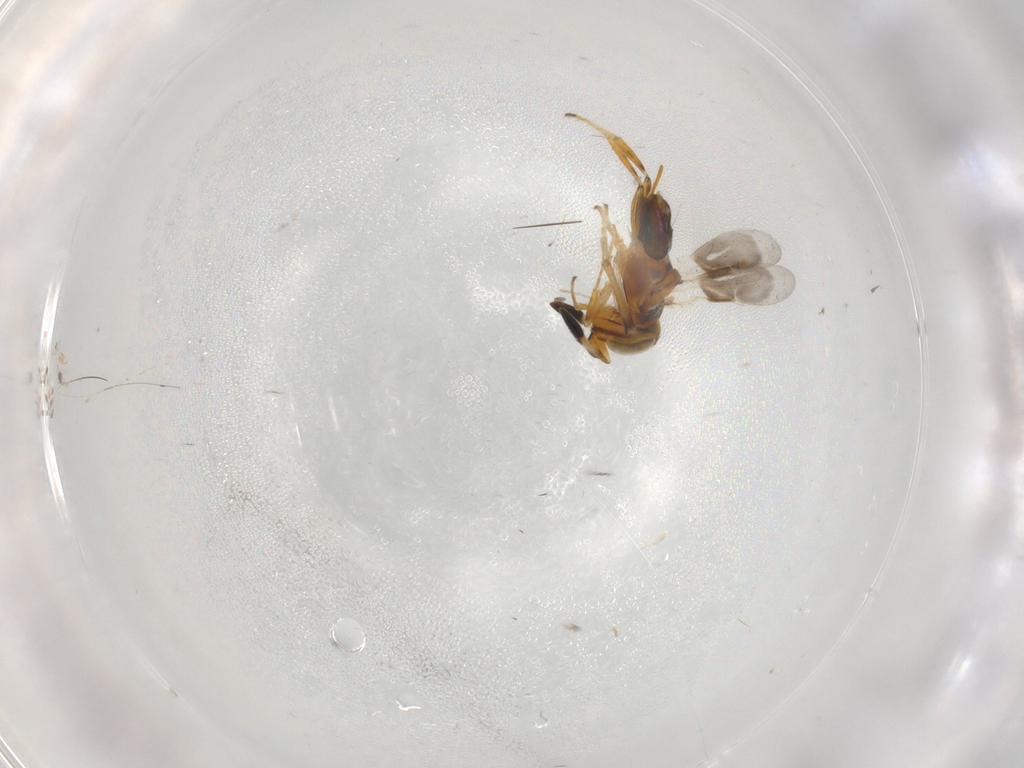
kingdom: Animalia
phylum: Arthropoda
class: Insecta
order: Hymenoptera
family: Encyrtidae
